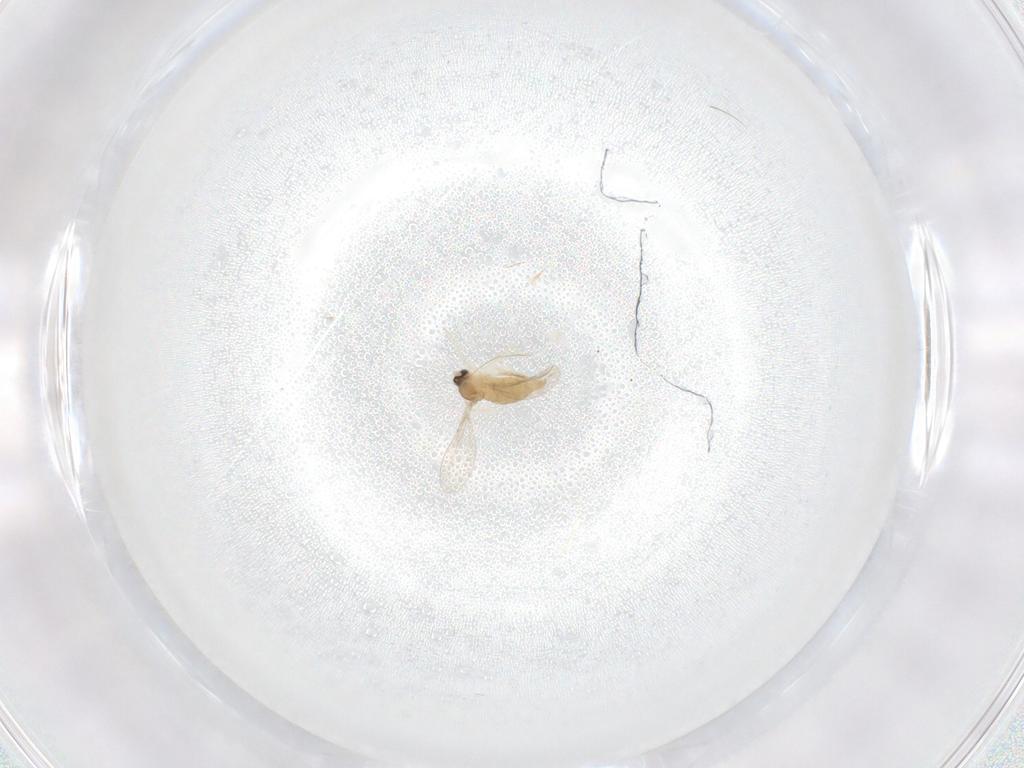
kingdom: Animalia
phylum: Arthropoda
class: Insecta
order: Diptera
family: Cecidomyiidae
